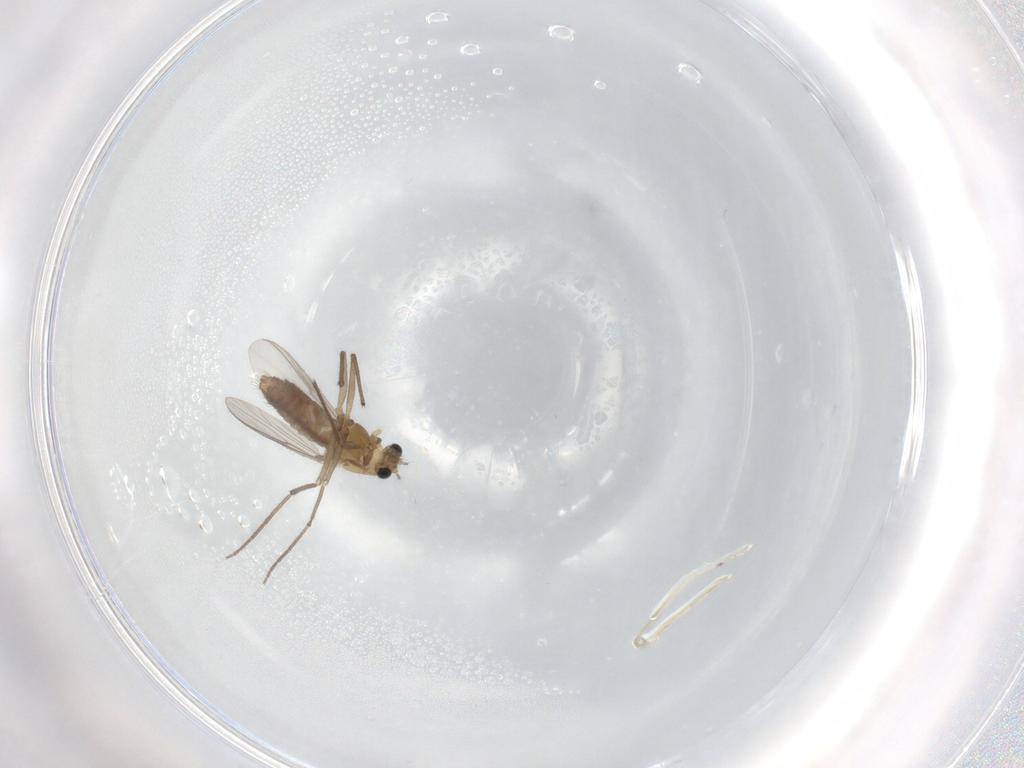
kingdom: Animalia
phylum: Arthropoda
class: Insecta
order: Diptera
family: Chironomidae
